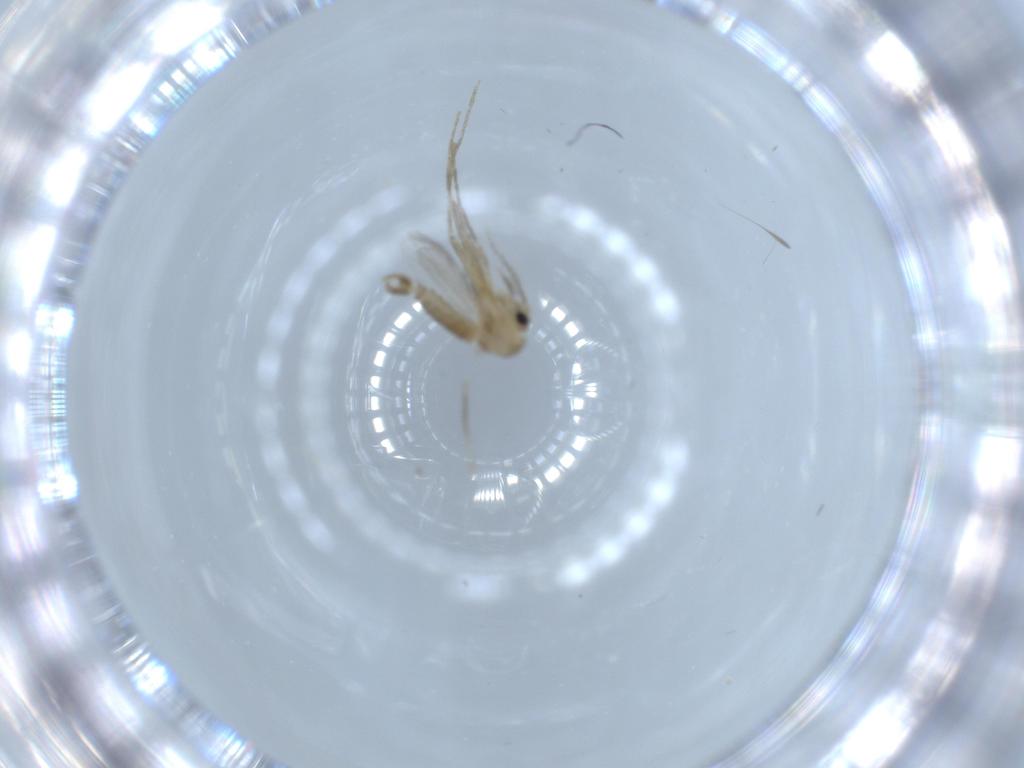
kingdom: Animalia
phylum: Arthropoda
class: Insecta
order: Diptera
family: Psychodidae
